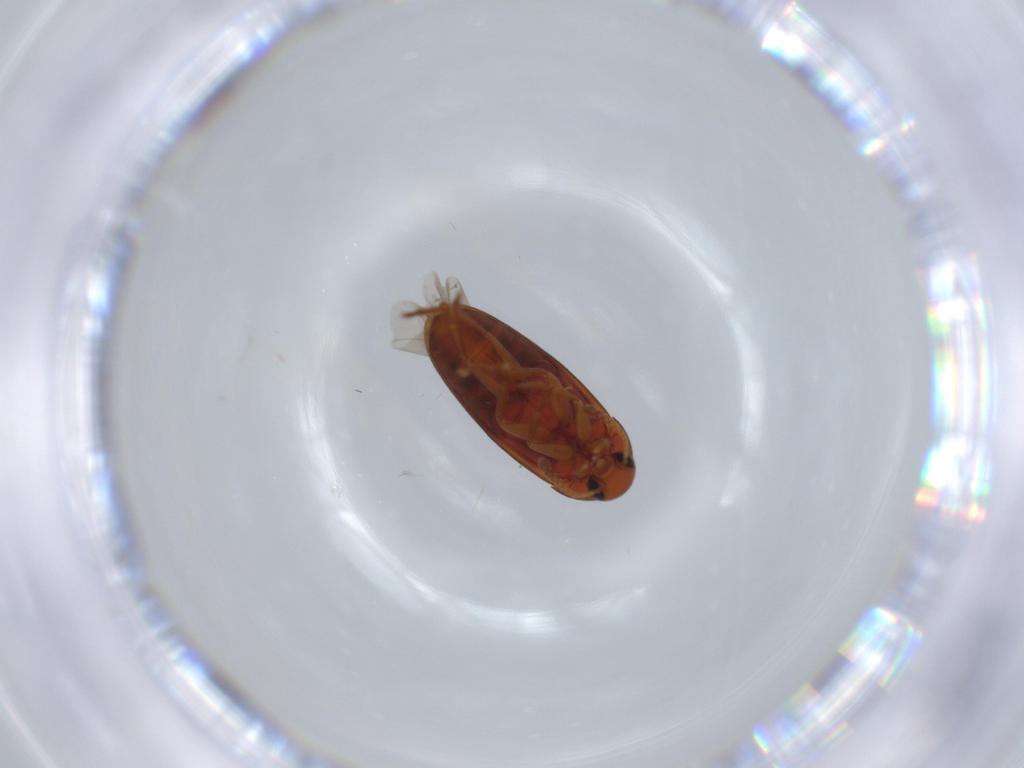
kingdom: Animalia
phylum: Arthropoda
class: Insecta
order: Coleoptera
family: Scraptiidae
